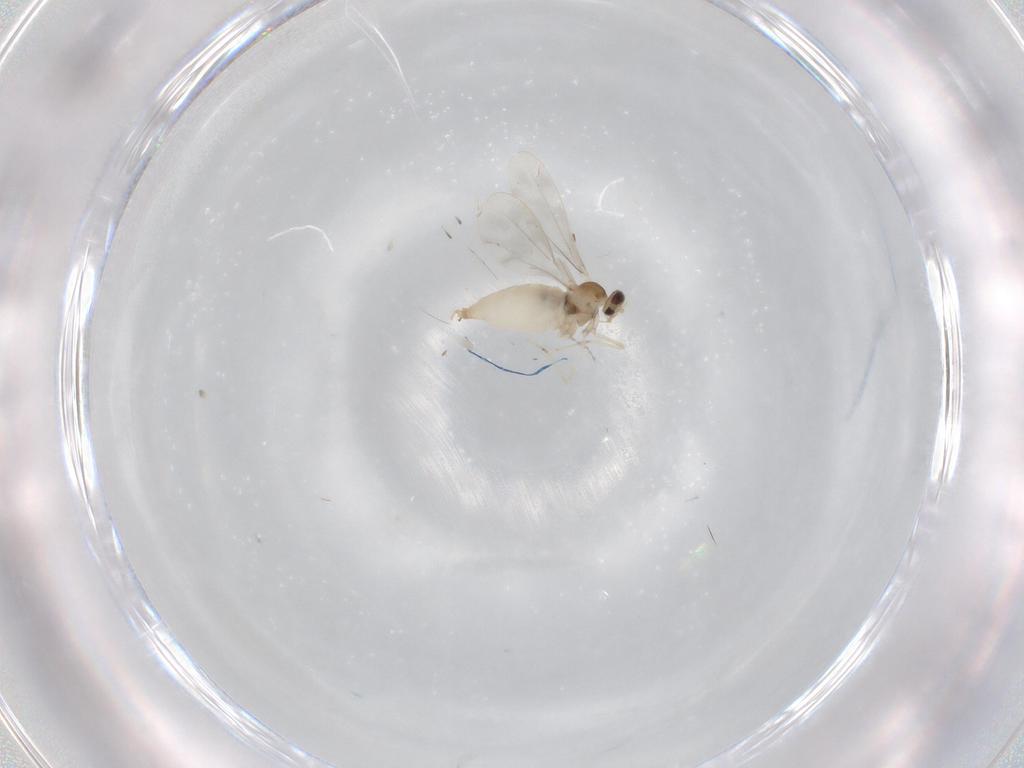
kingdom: Animalia
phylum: Arthropoda
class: Insecta
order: Diptera
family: Cecidomyiidae
